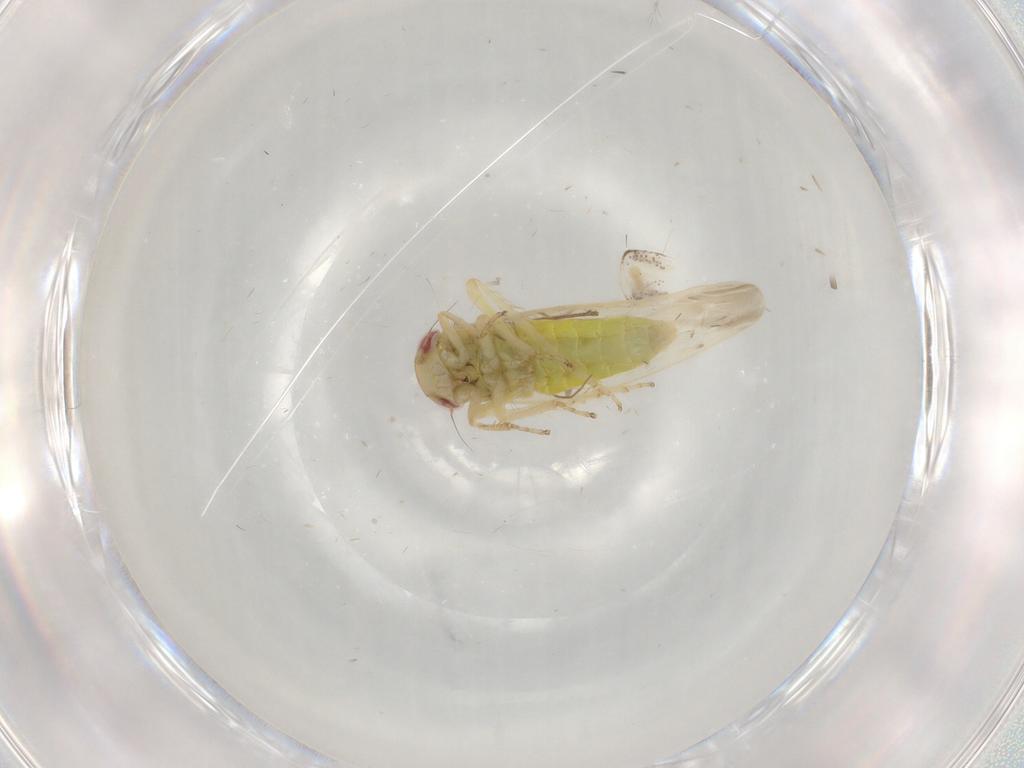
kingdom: Animalia
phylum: Arthropoda
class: Insecta
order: Hemiptera
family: Cicadellidae
